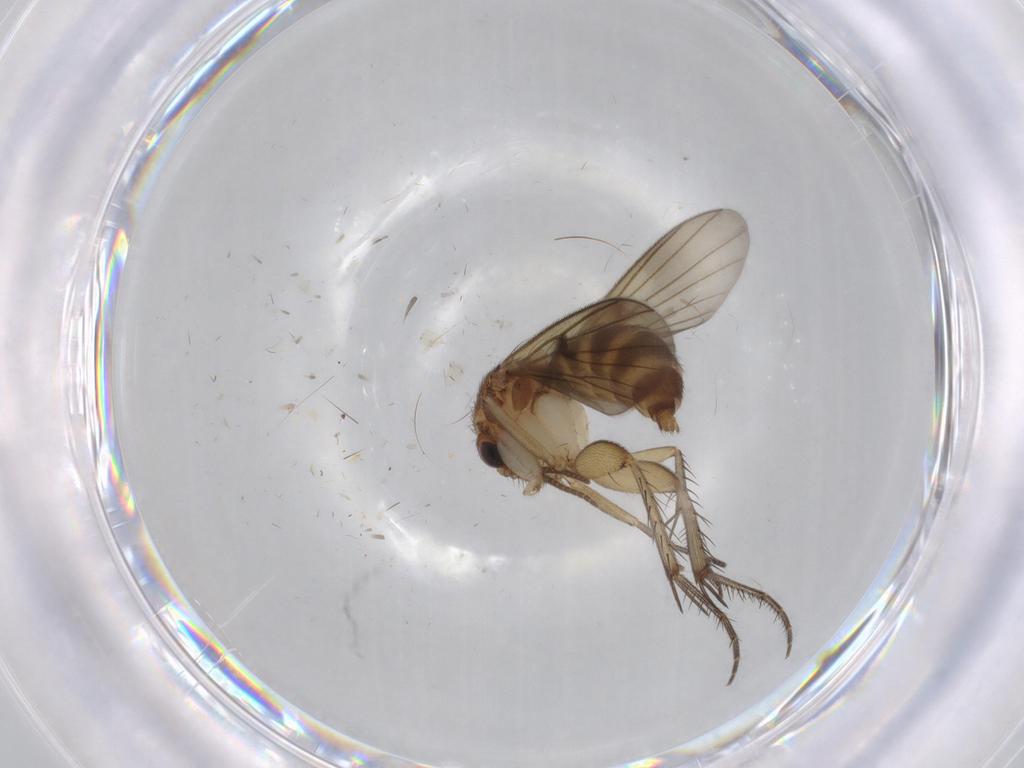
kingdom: Animalia
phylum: Arthropoda
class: Insecta
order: Diptera
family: Mycetophilidae
